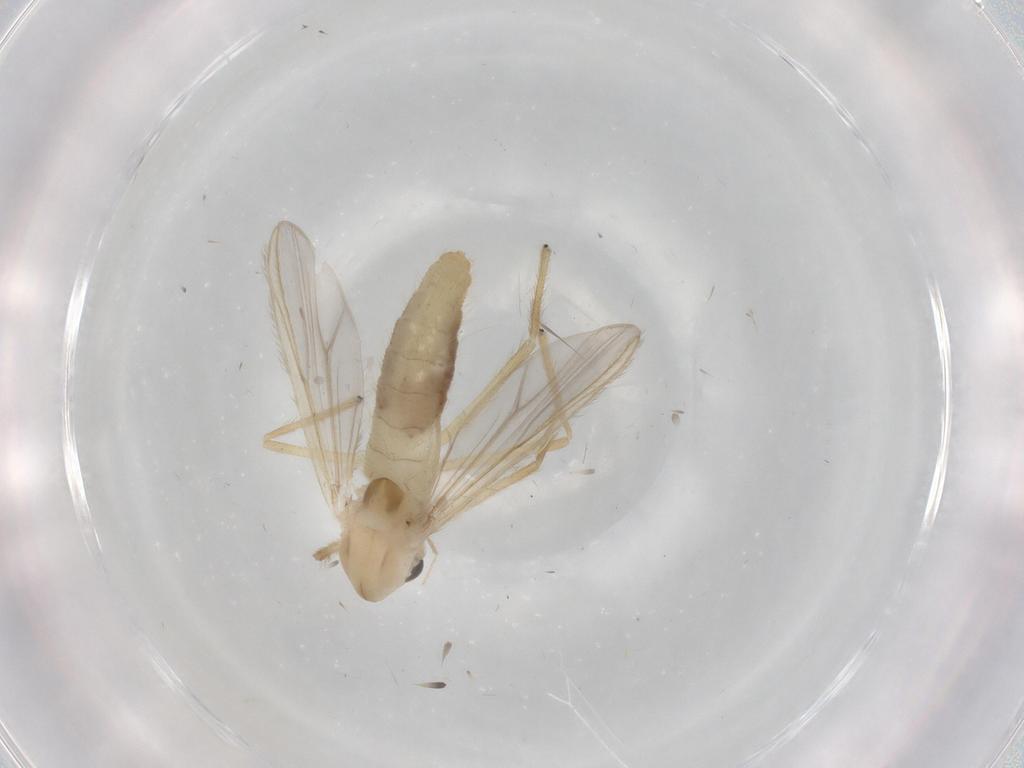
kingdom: Animalia
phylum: Arthropoda
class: Insecta
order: Diptera
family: Chironomidae
